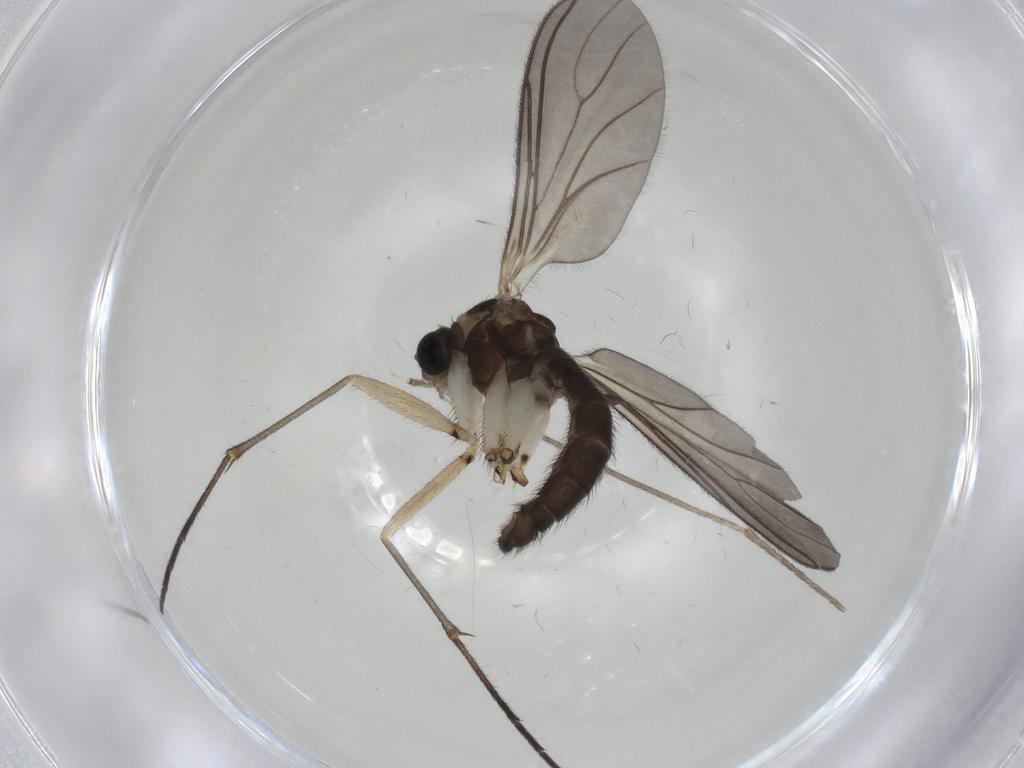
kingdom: Animalia
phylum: Arthropoda
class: Insecta
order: Diptera
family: Sciaridae
